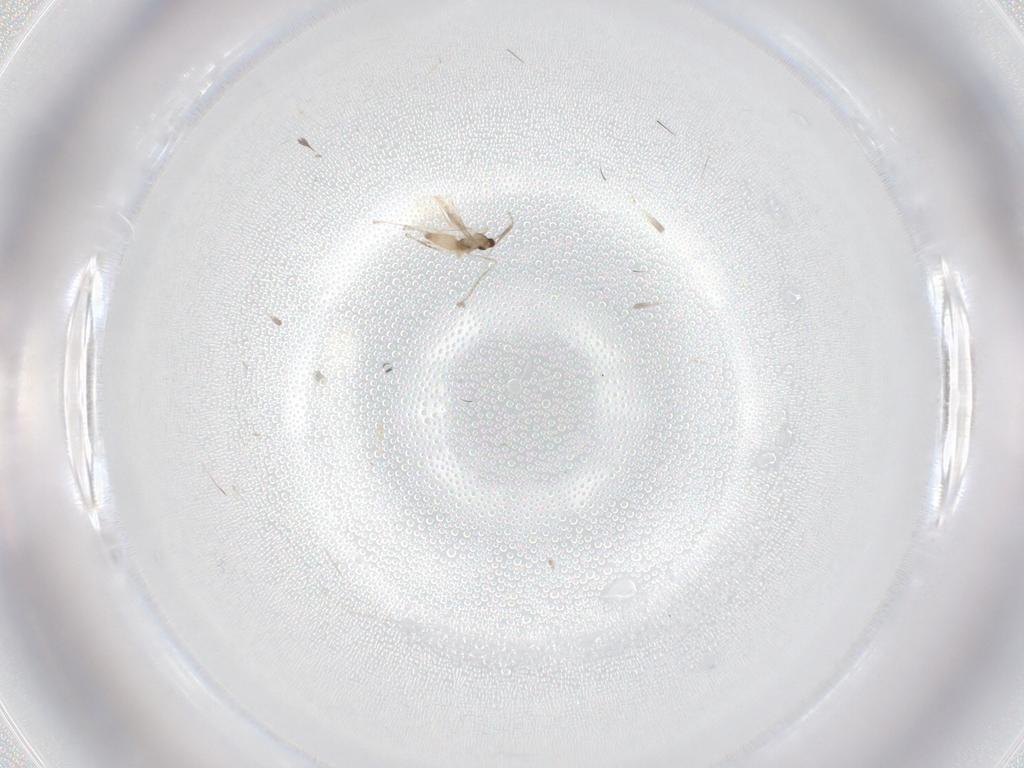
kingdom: Animalia
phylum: Arthropoda
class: Insecta
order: Diptera
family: Cecidomyiidae
